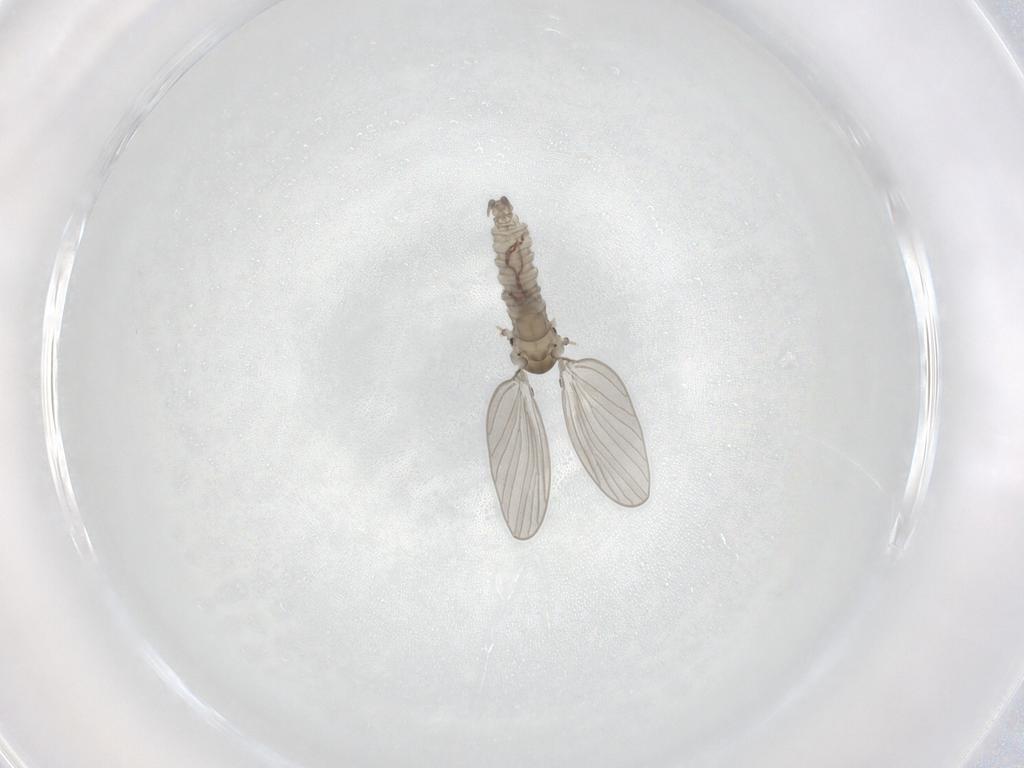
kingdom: Animalia
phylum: Arthropoda
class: Insecta
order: Diptera
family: Psychodidae
